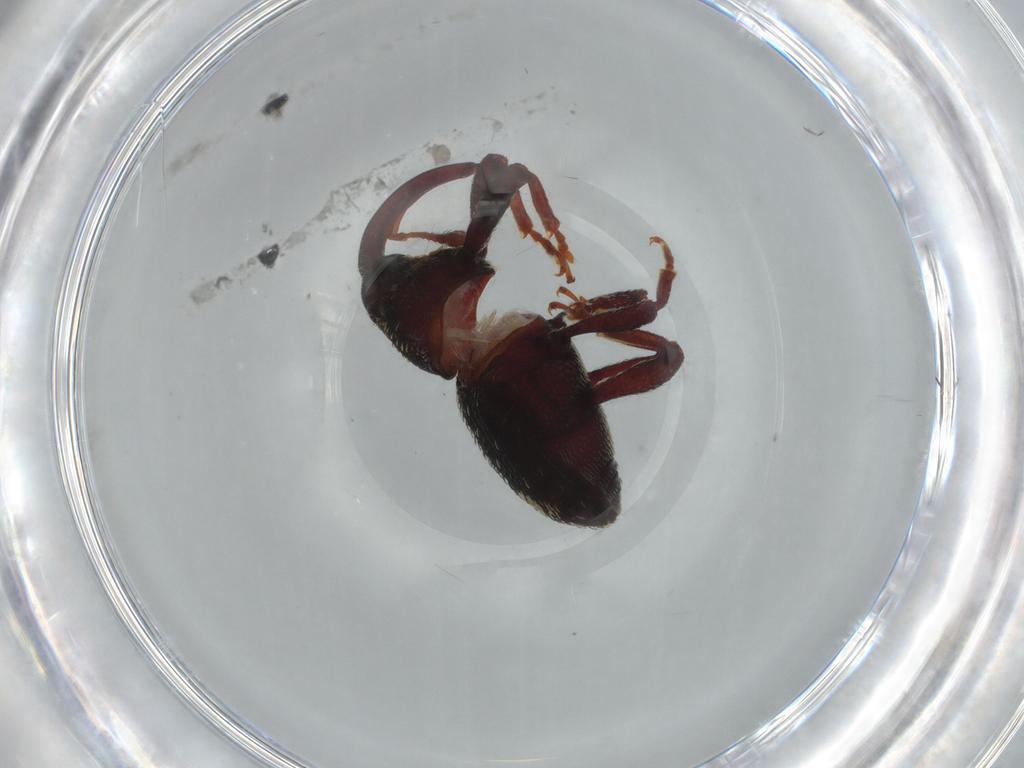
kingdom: Animalia
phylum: Arthropoda
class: Insecta
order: Coleoptera
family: Curculionidae
